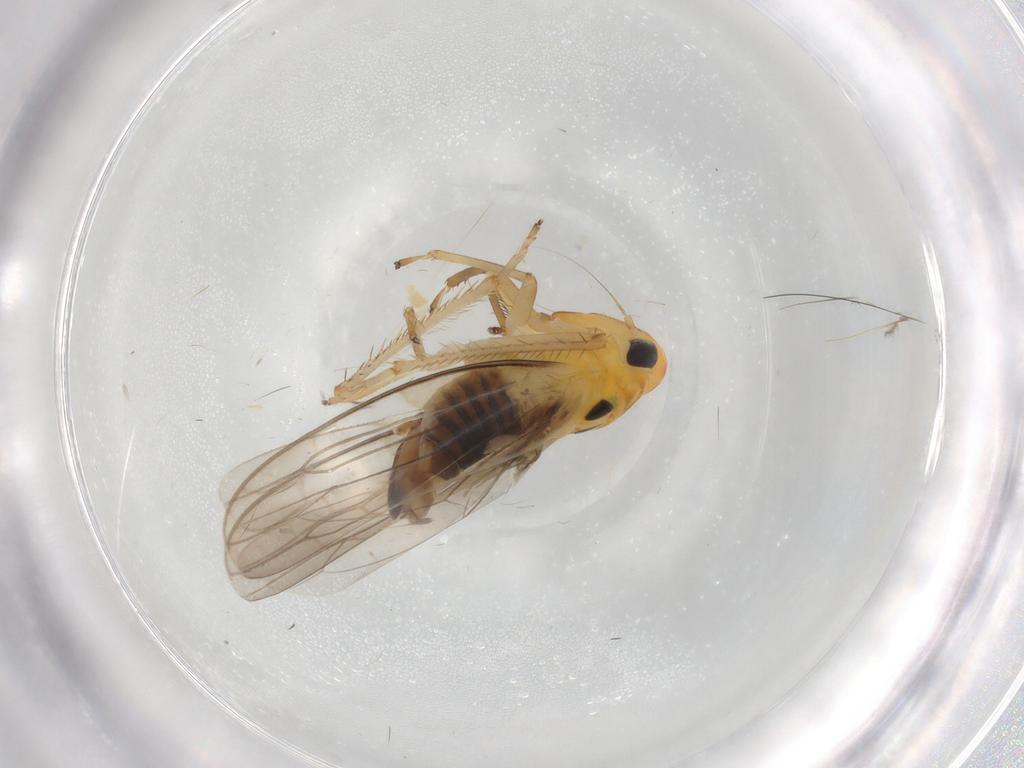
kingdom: Animalia
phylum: Arthropoda
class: Insecta
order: Hemiptera
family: Cicadellidae
